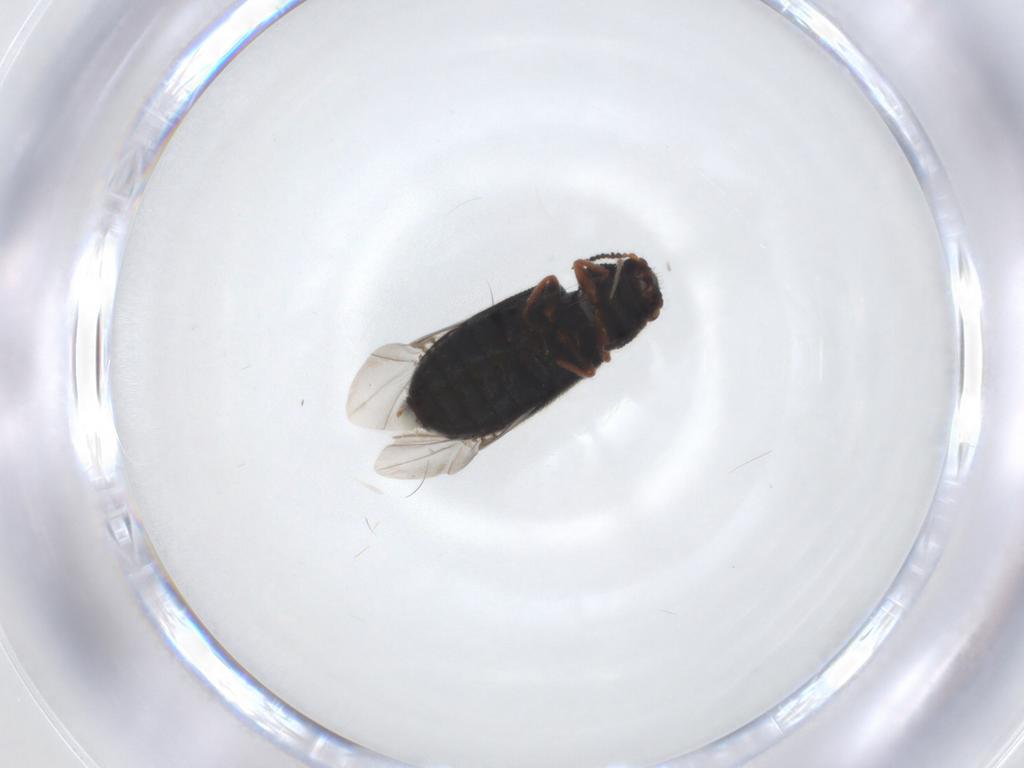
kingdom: Animalia
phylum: Arthropoda
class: Insecta
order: Coleoptera
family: Melyridae
